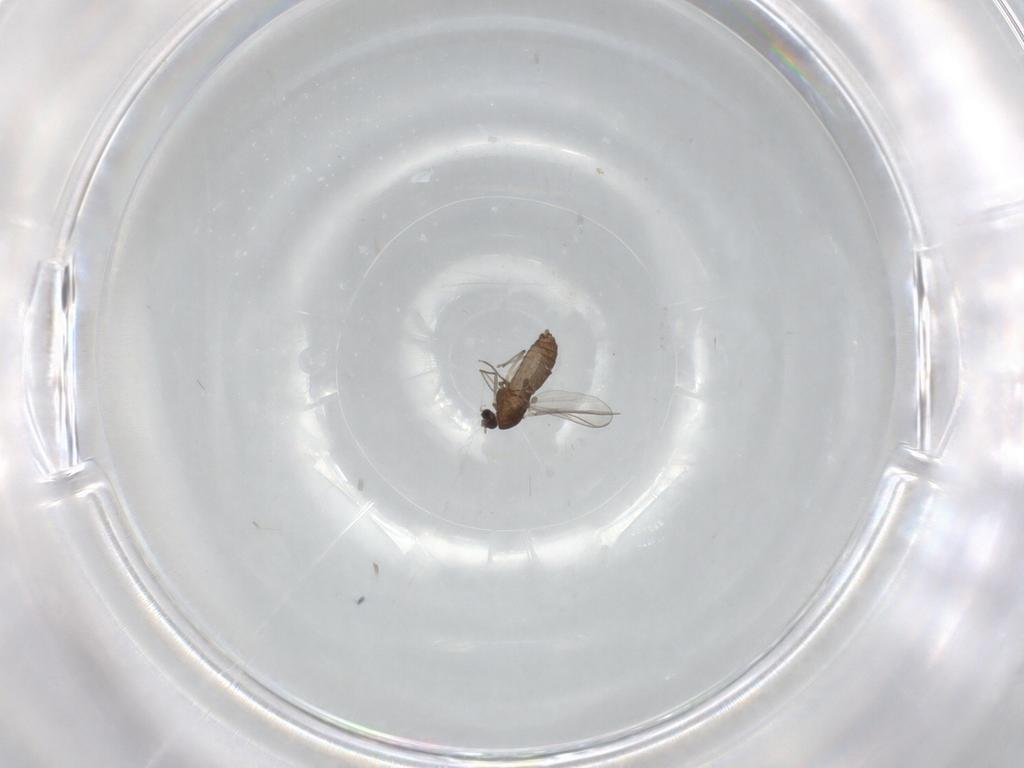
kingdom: Animalia
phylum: Arthropoda
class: Insecta
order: Diptera
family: Cecidomyiidae
